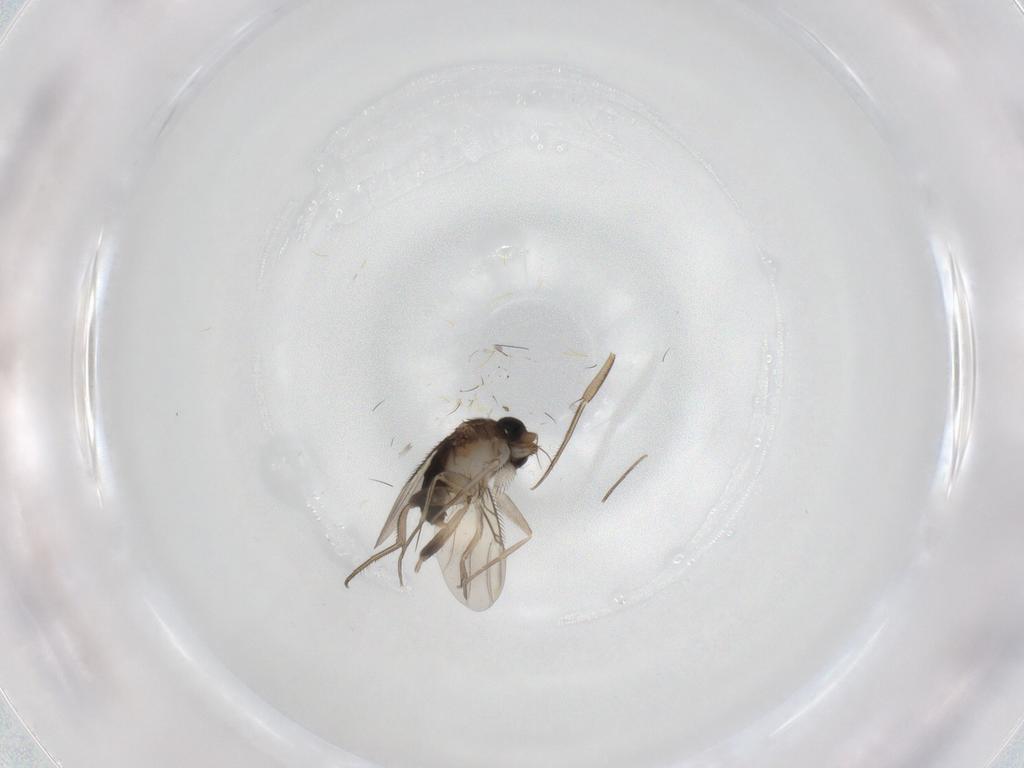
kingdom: Animalia
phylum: Arthropoda
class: Insecta
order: Diptera
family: Phoridae
